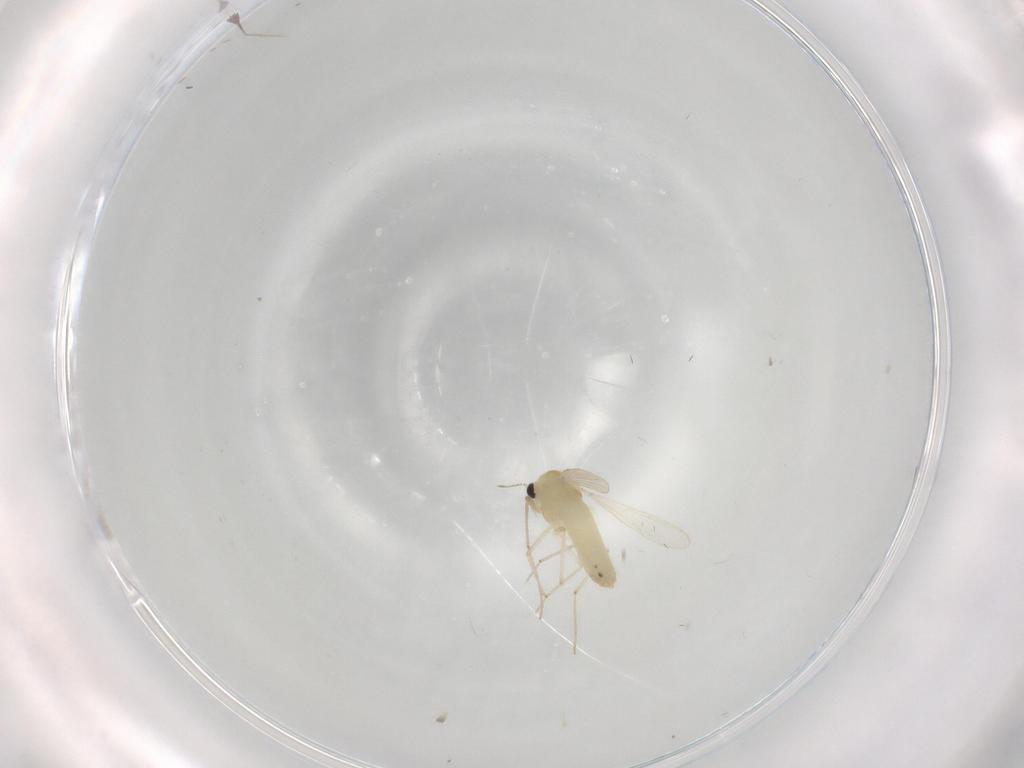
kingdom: Animalia
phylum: Arthropoda
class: Insecta
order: Diptera
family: Chironomidae
